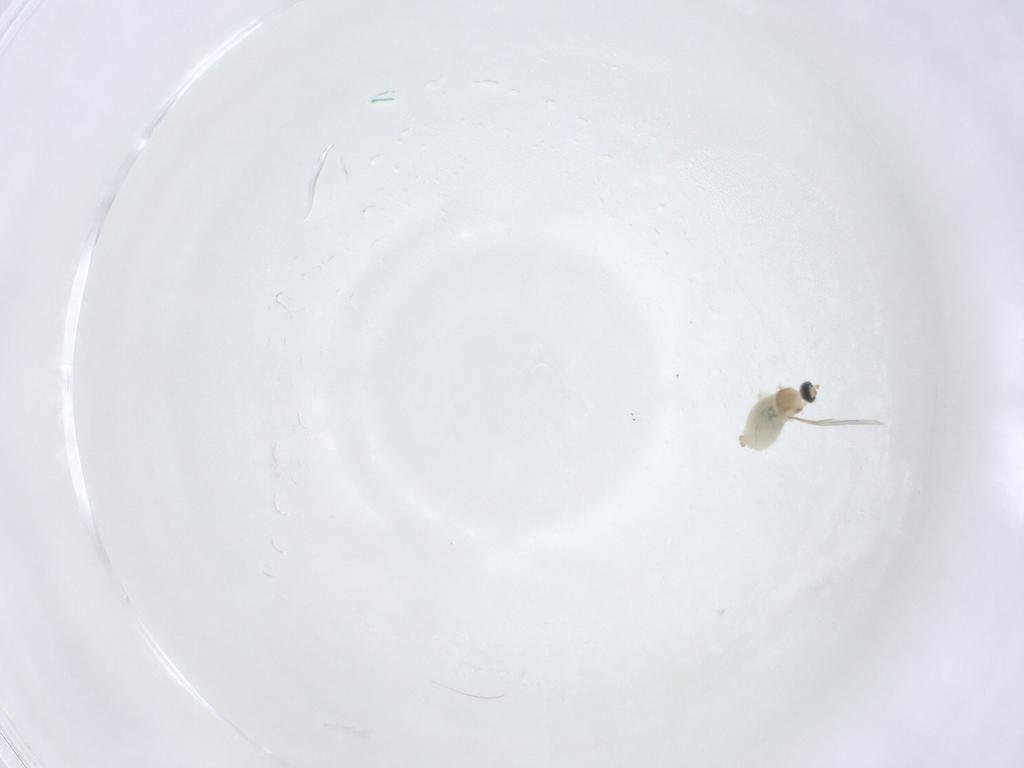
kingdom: Animalia
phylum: Arthropoda
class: Insecta
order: Diptera
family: Cecidomyiidae
